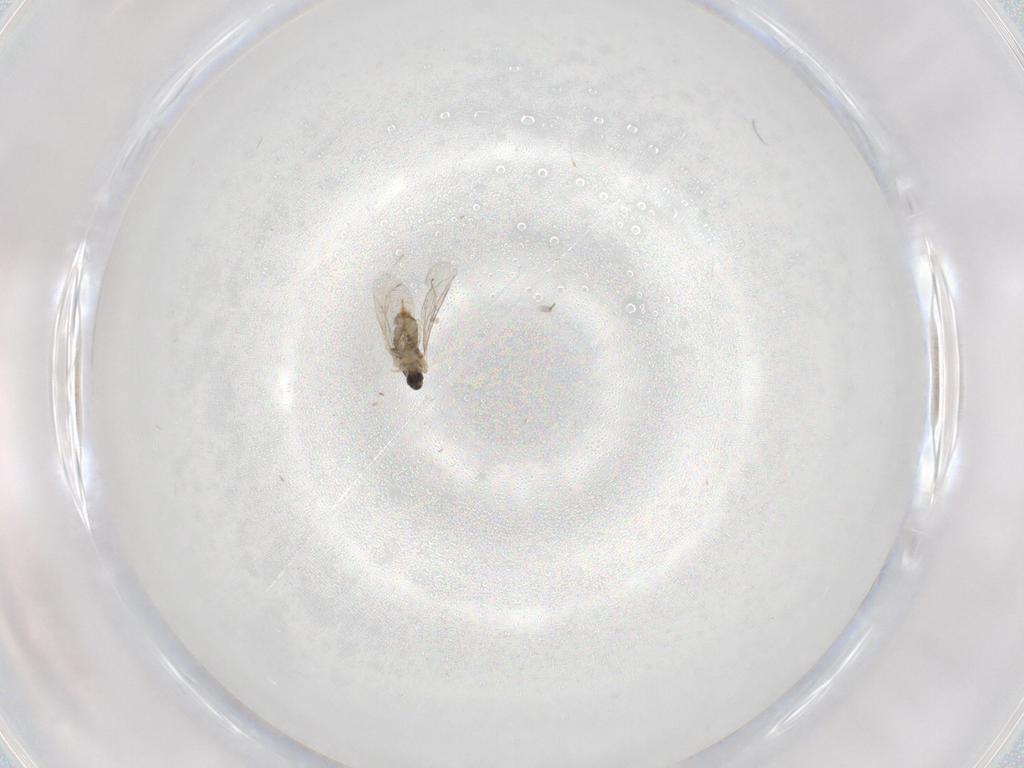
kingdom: Animalia
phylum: Arthropoda
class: Insecta
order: Diptera
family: Cecidomyiidae
